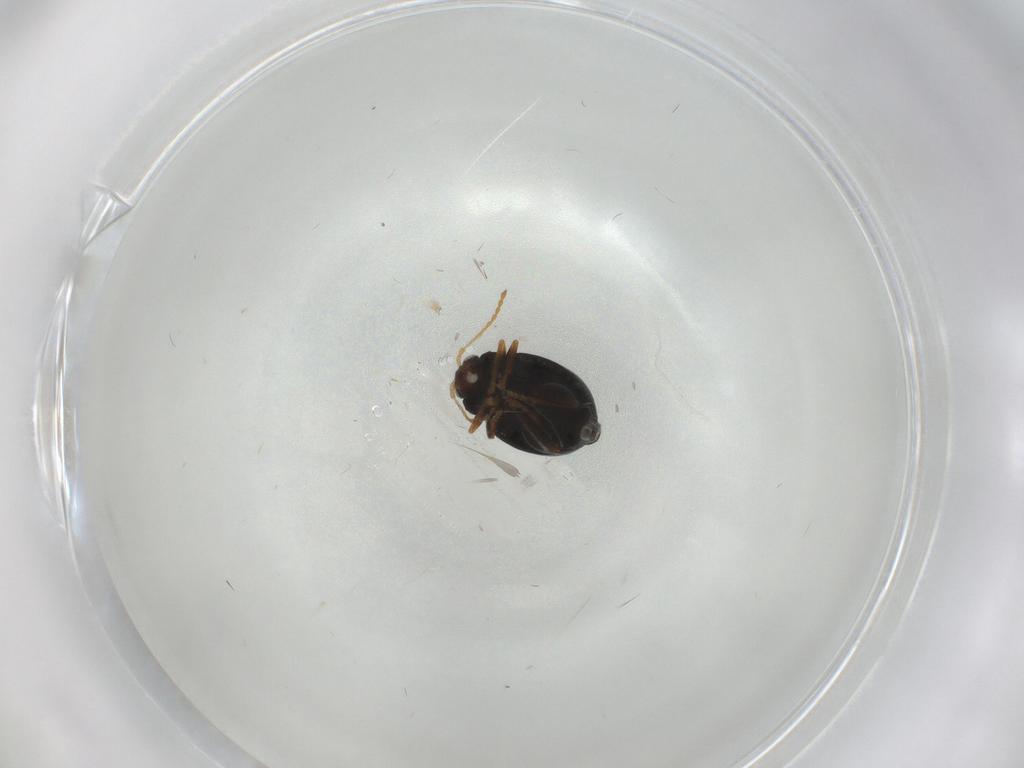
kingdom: Animalia
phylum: Arthropoda
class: Insecta
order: Coleoptera
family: Chrysomelidae
